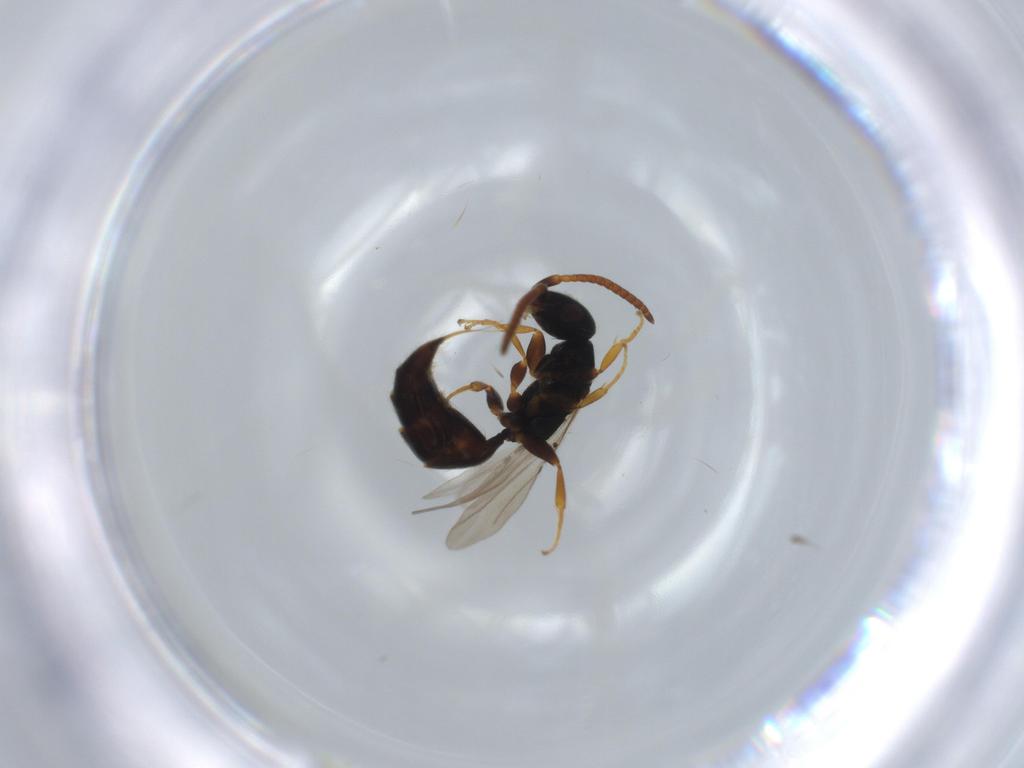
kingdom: Animalia
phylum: Arthropoda
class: Insecta
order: Hymenoptera
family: Bethylidae
